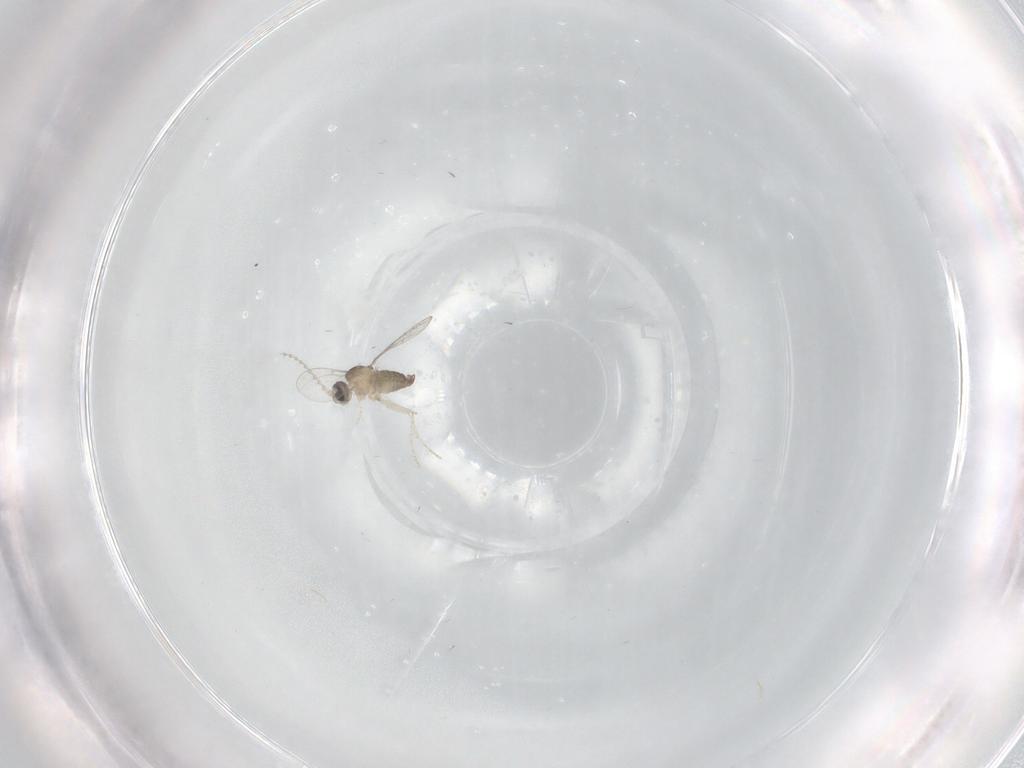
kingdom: Animalia
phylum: Arthropoda
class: Insecta
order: Diptera
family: Cecidomyiidae
